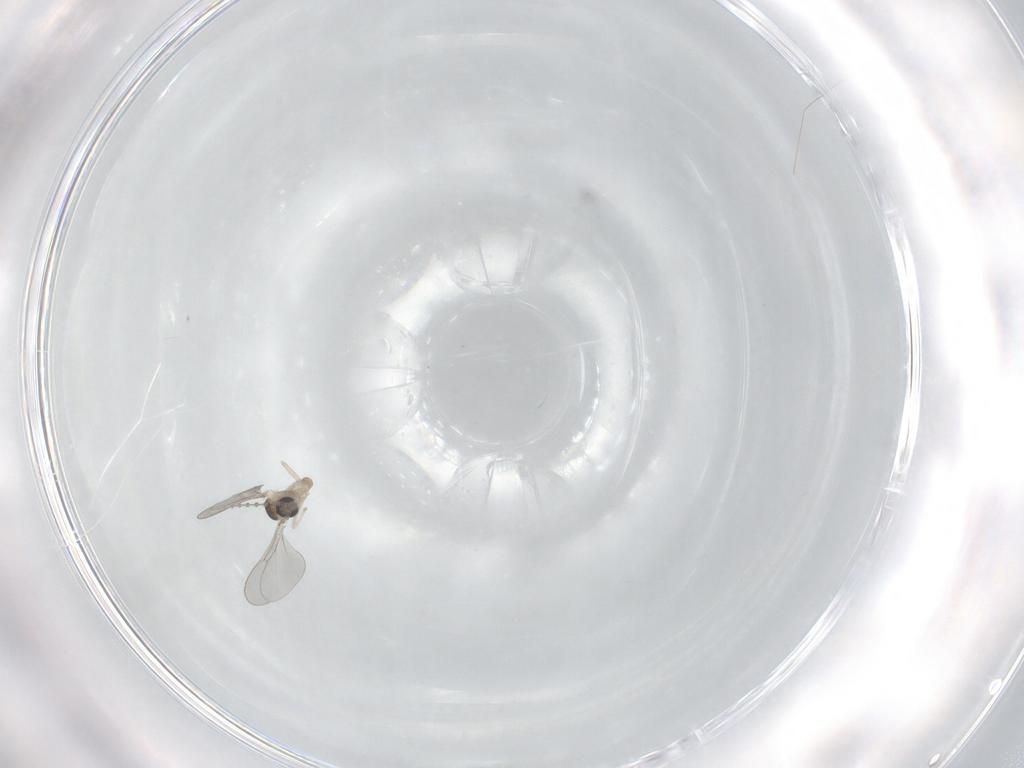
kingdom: Animalia
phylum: Arthropoda
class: Insecta
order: Diptera
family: Cecidomyiidae
